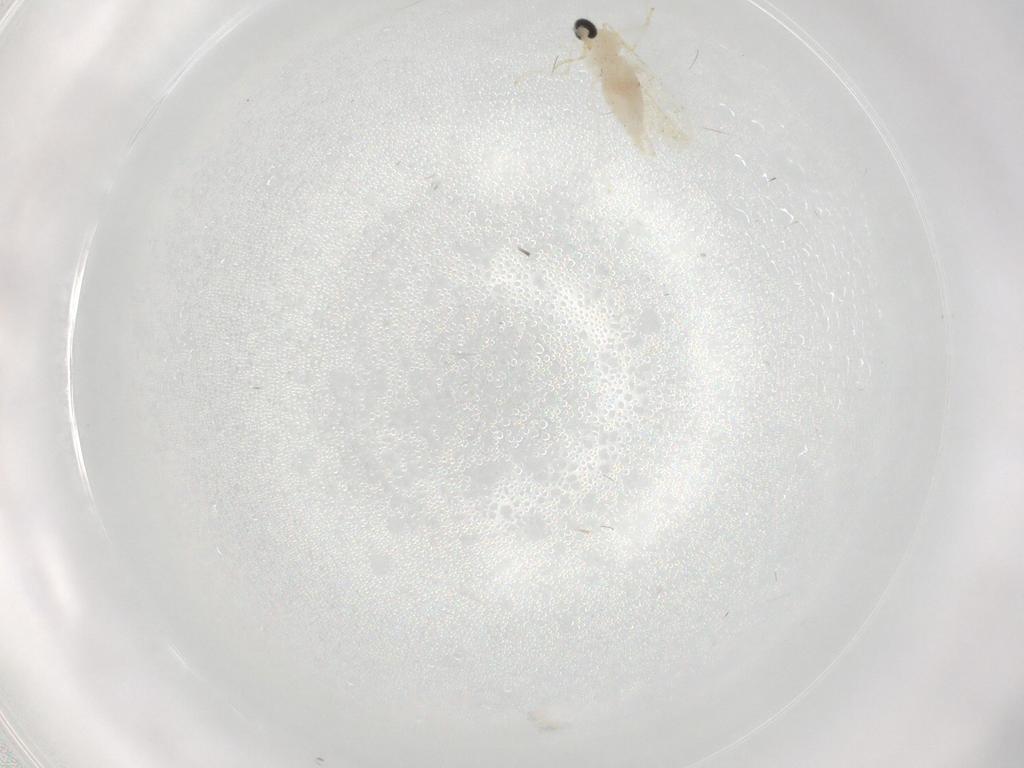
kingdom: Animalia
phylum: Arthropoda
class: Insecta
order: Diptera
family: Cecidomyiidae
